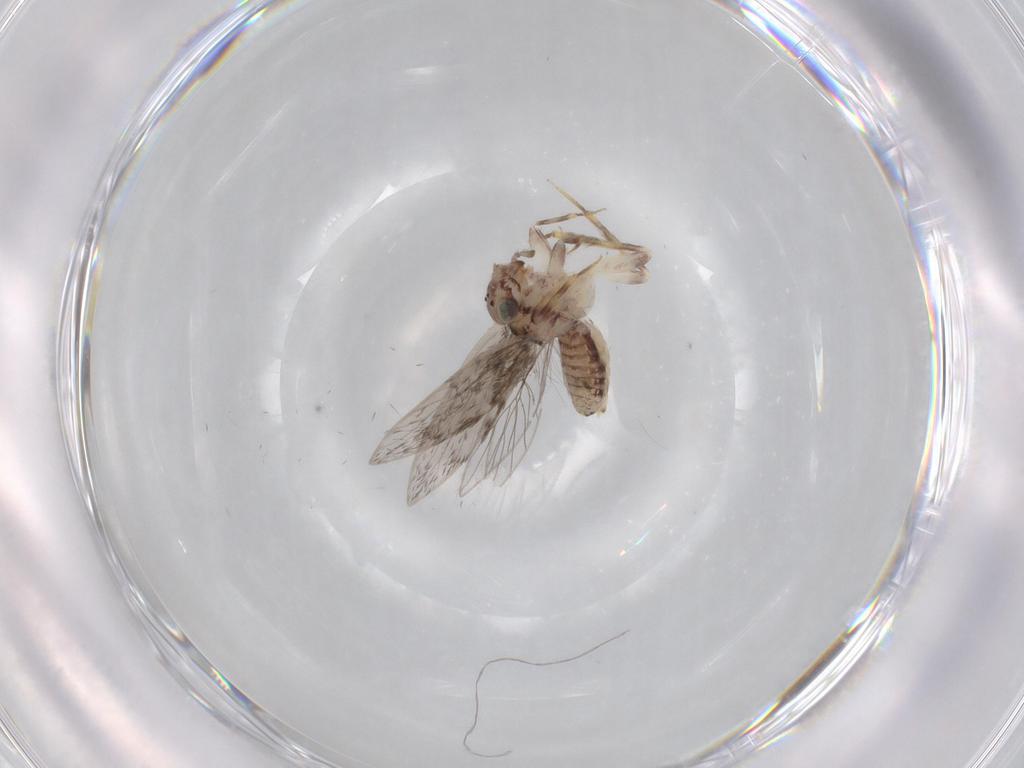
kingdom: Animalia
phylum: Arthropoda
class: Insecta
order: Psocodea
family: Lepidopsocidae
